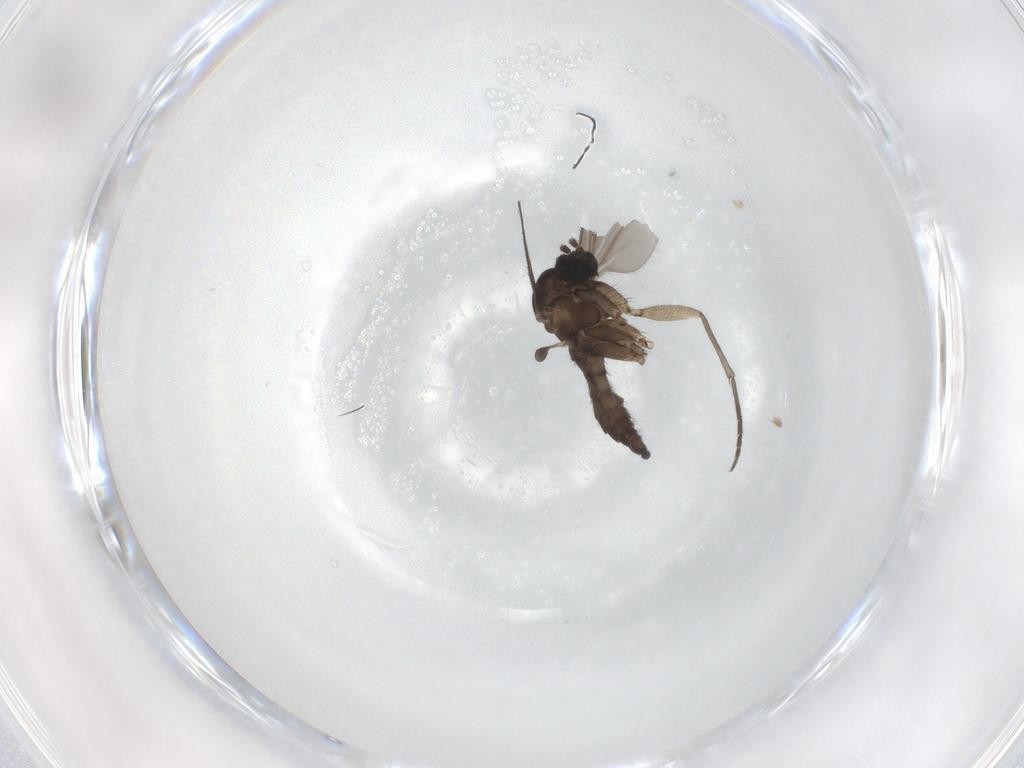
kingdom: Animalia
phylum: Arthropoda
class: Insecta
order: Diptera
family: Sciaridae
